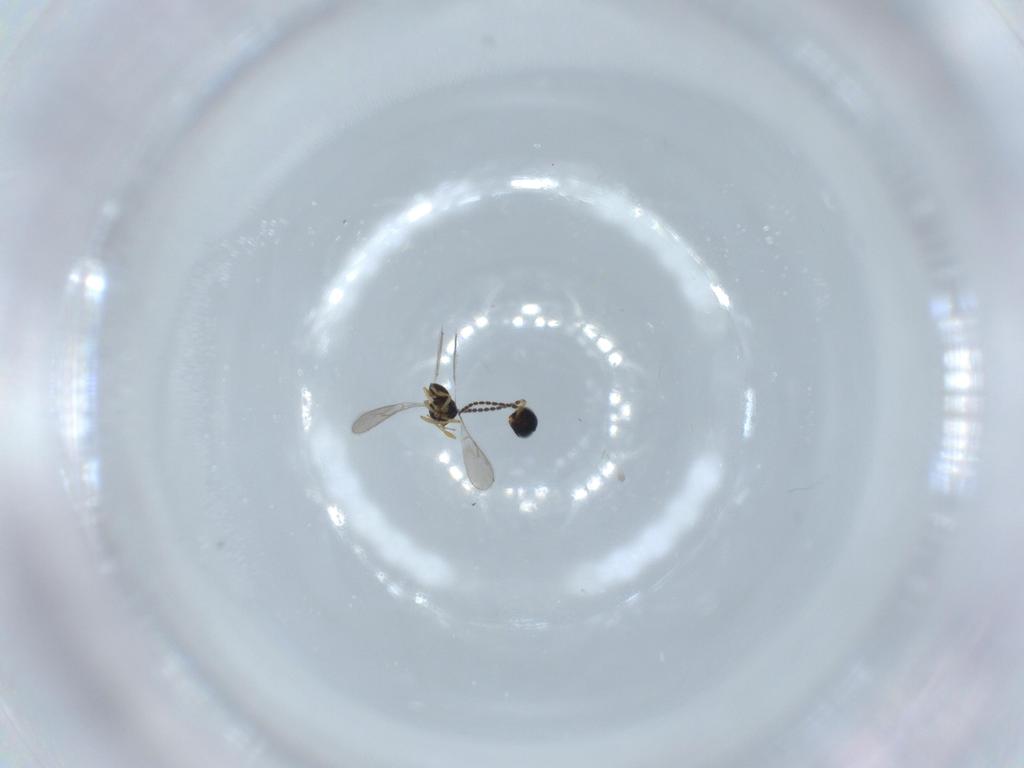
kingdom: Animalia
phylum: Arthropoda
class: Insecta
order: Hymenoptera
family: Scelionidae
